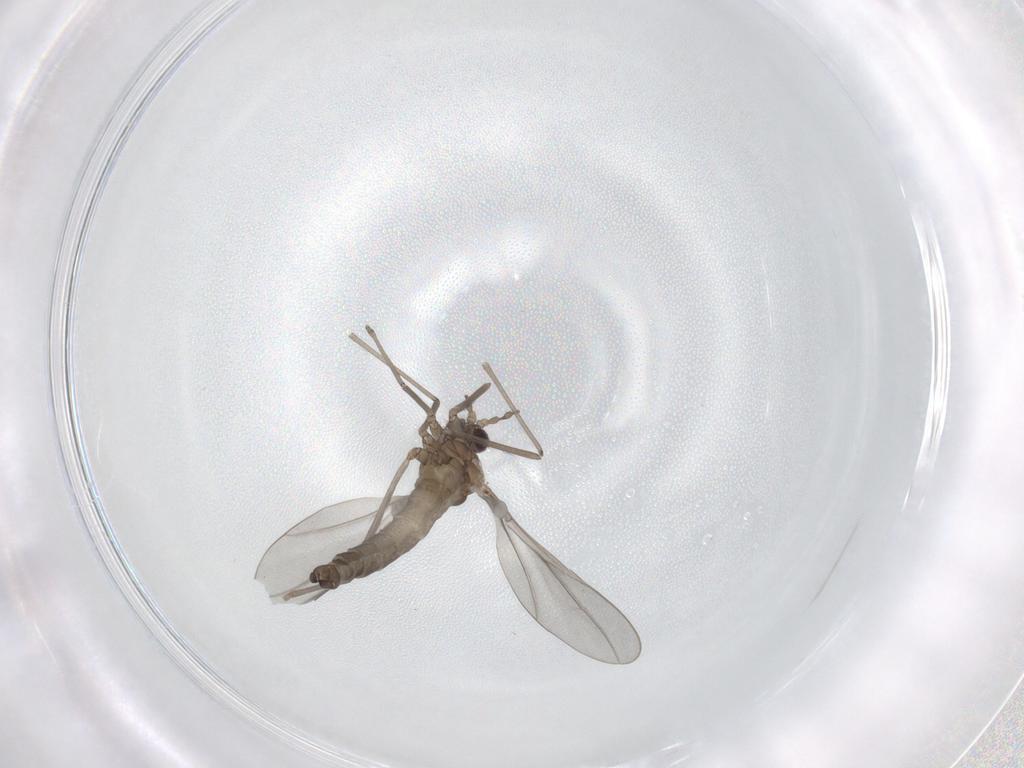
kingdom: Animalia
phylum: Arthropoda
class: Insecta
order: Diptera
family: Cecidomyiidae
